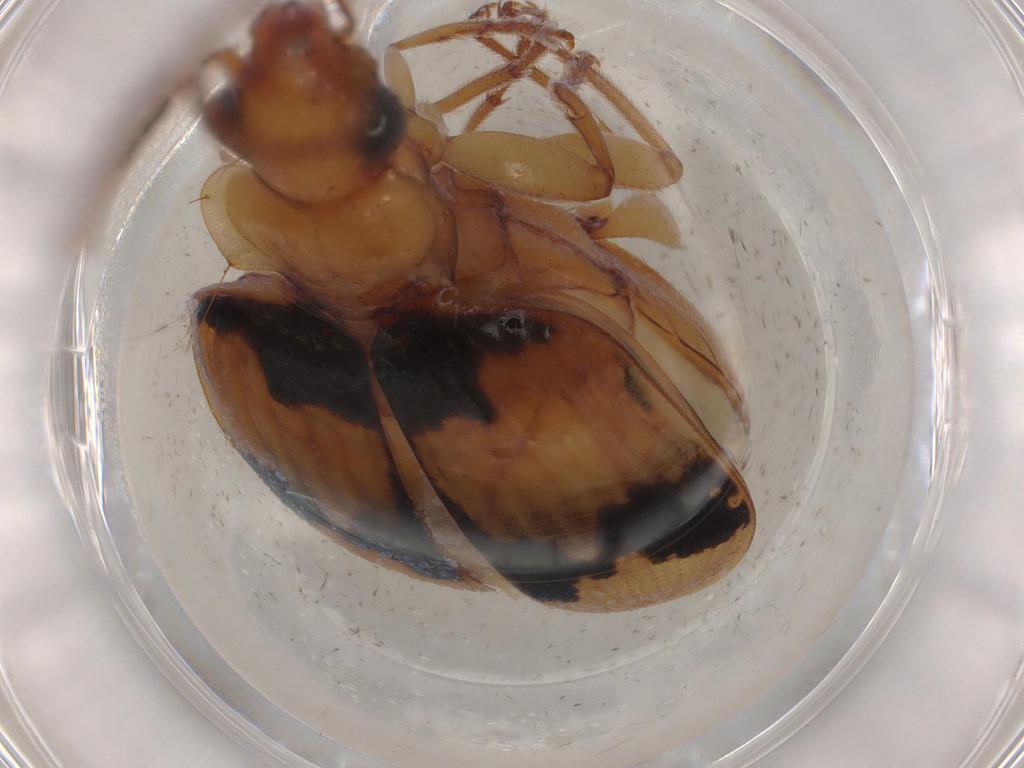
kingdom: Animalia
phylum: Arthropoda
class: Insecta
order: Coleoptera
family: Carabidae
